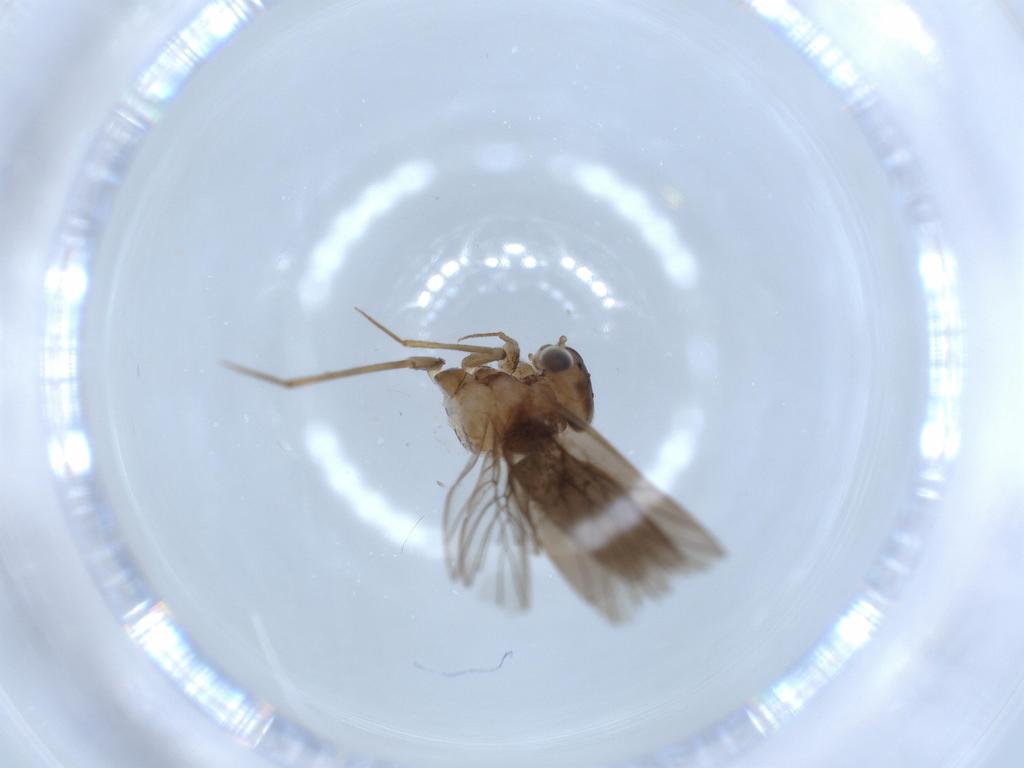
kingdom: Animalia
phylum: Arthropoda
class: Insecta
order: Psocodea
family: Lepidopsocidae
